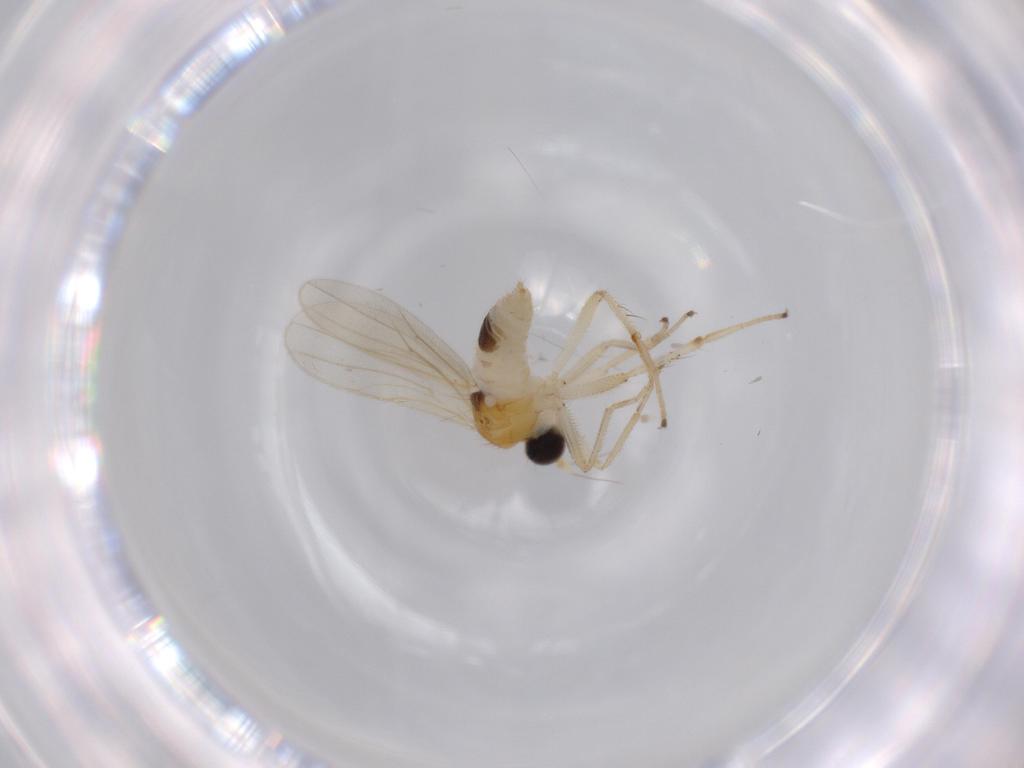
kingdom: Animalia
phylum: Arthropoda
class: Insecta
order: Diptera
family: Hybotidae
